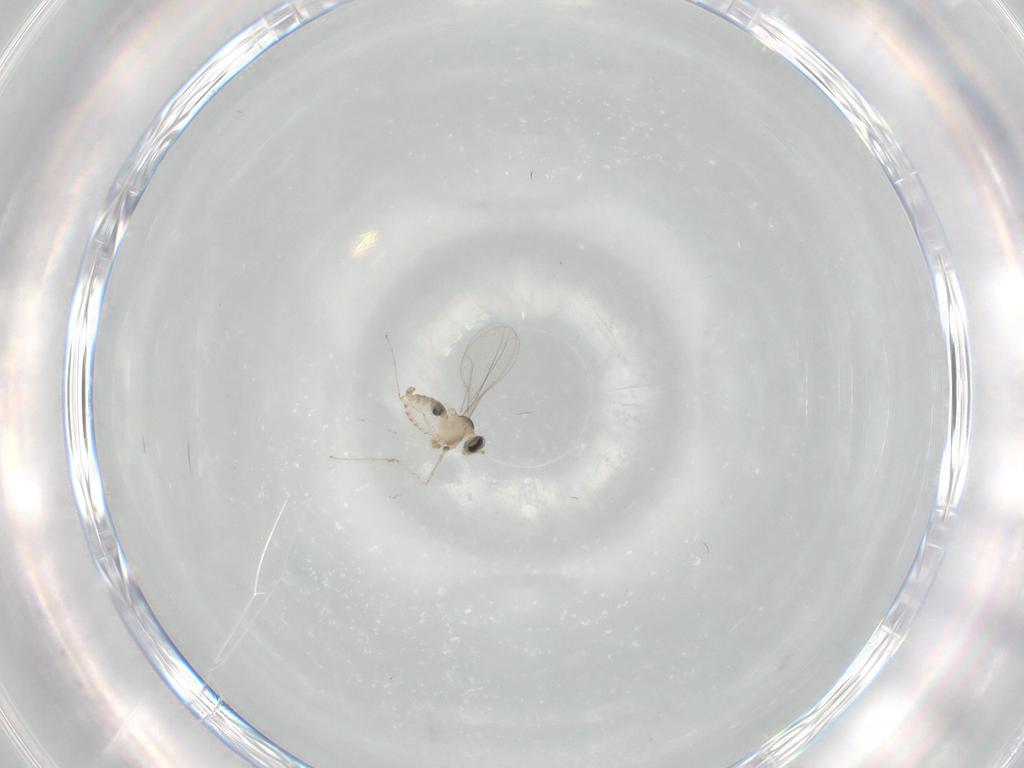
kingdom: Animalia
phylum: Arthropoda
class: Insecta
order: Diptera
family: Cecidomyiidae
